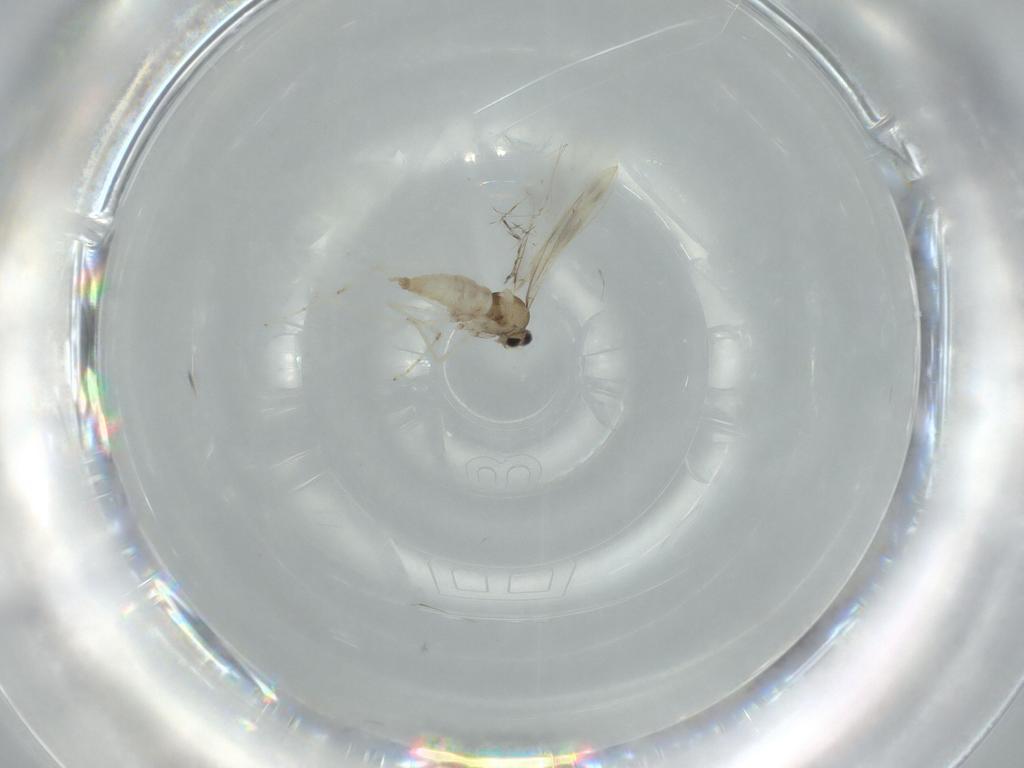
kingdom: Animalia
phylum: Arthropoda
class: Insecta
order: Diptera
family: Cecidomyiidae
